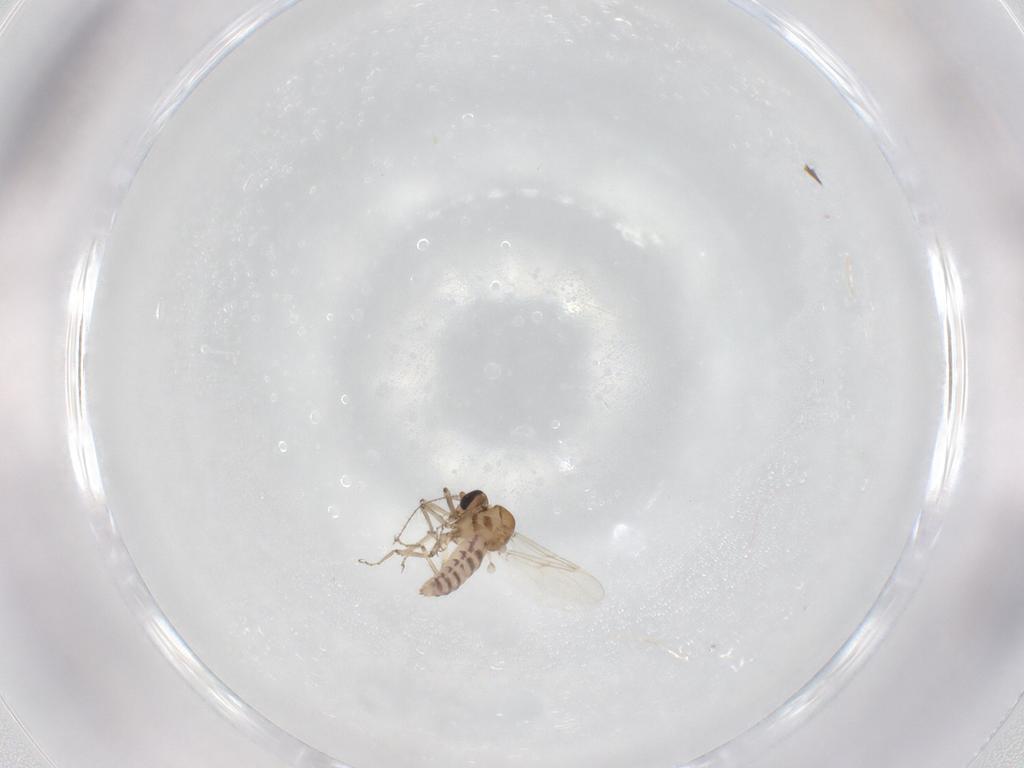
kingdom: Animalia
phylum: Arthropoda
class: Insecta
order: Diptera
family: Ceratopogonidae
